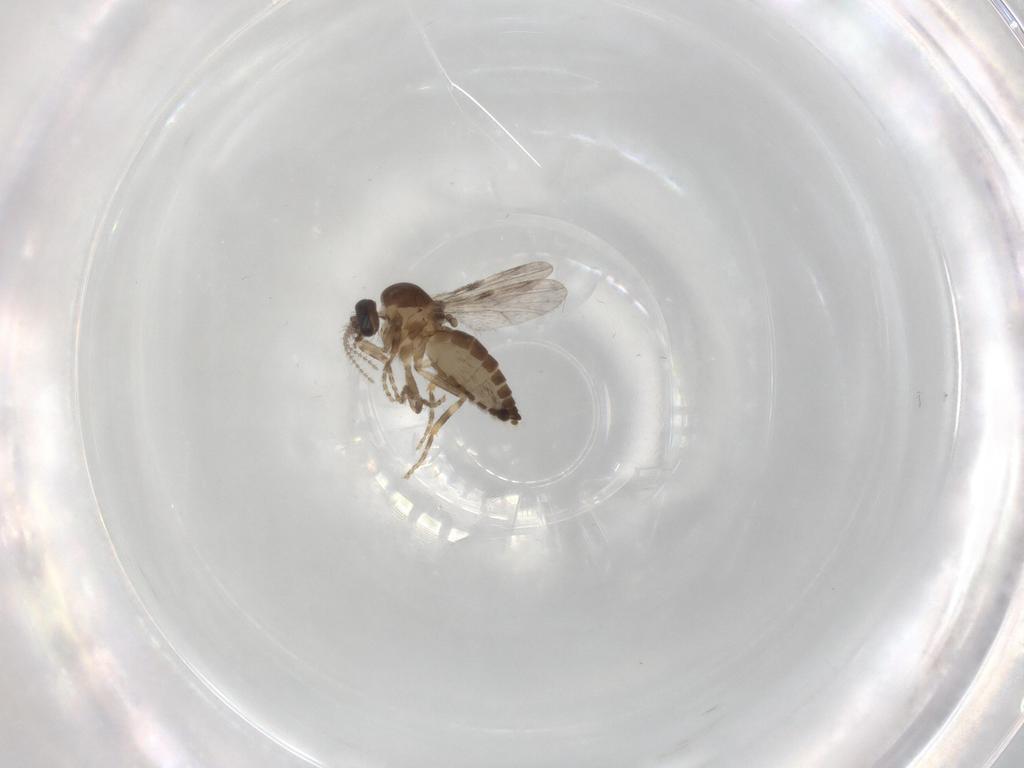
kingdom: Animalia
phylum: Arthropoda
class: Insecta
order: Diptera
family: Ceratopogonidae
